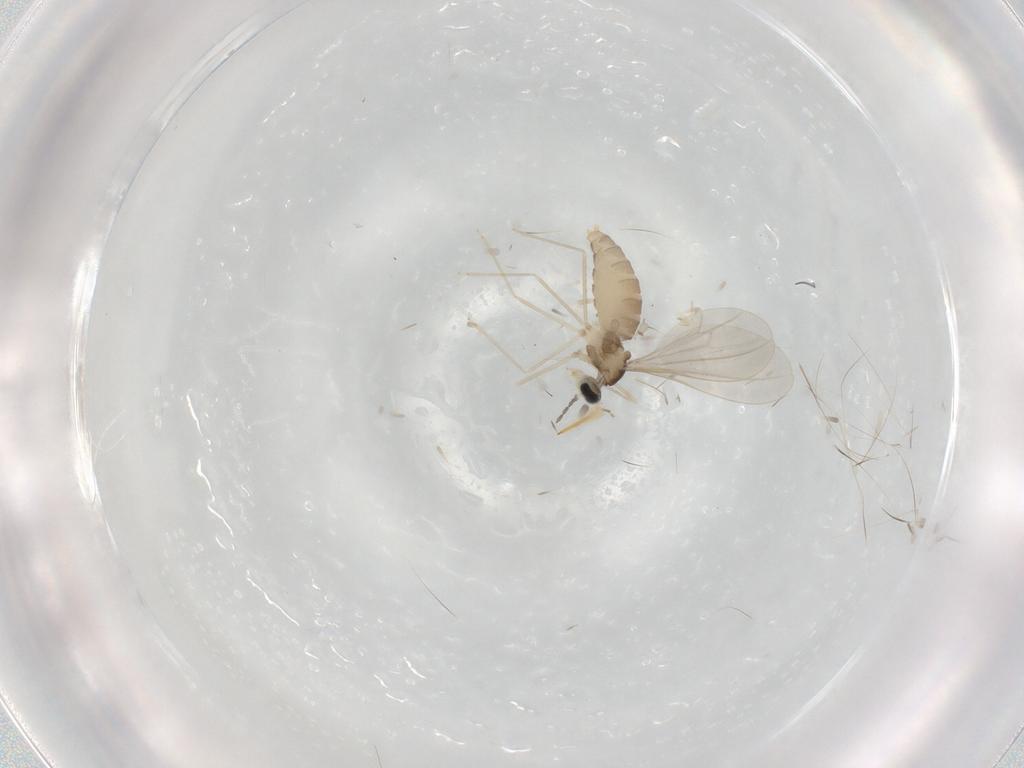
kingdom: Animalia
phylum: Arthropoda
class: Insecta
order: Diptera
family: Cecidomyiidae
